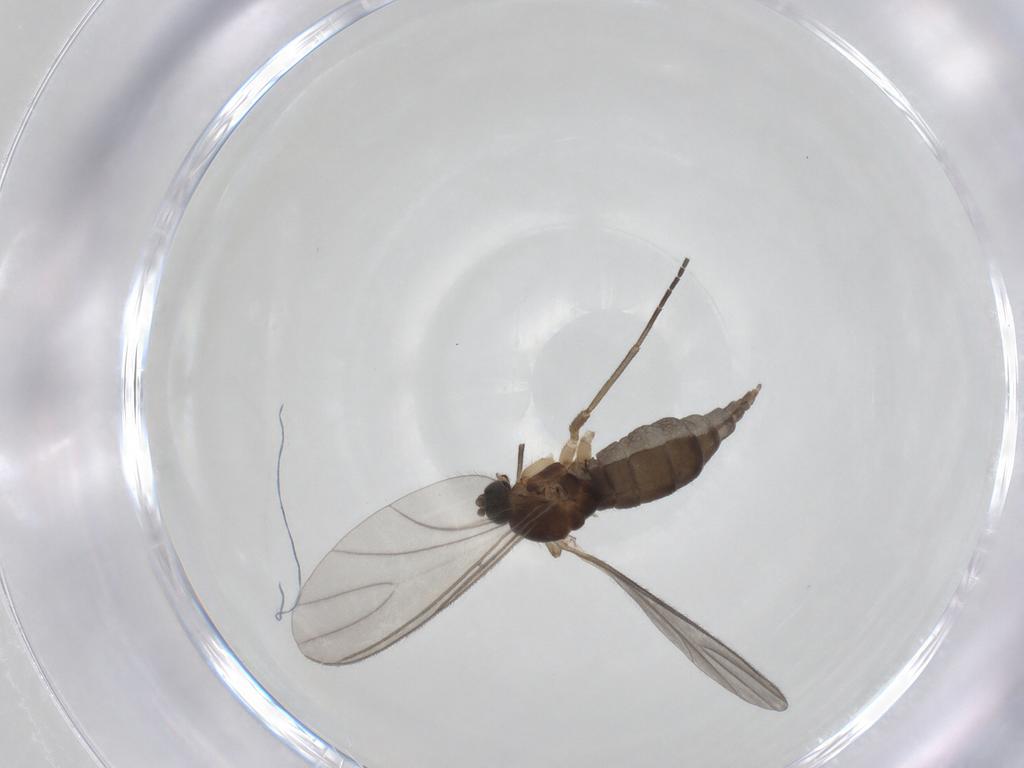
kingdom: Animalia
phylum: Arthropoda
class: Insecta
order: Diptera
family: Sciaridae
